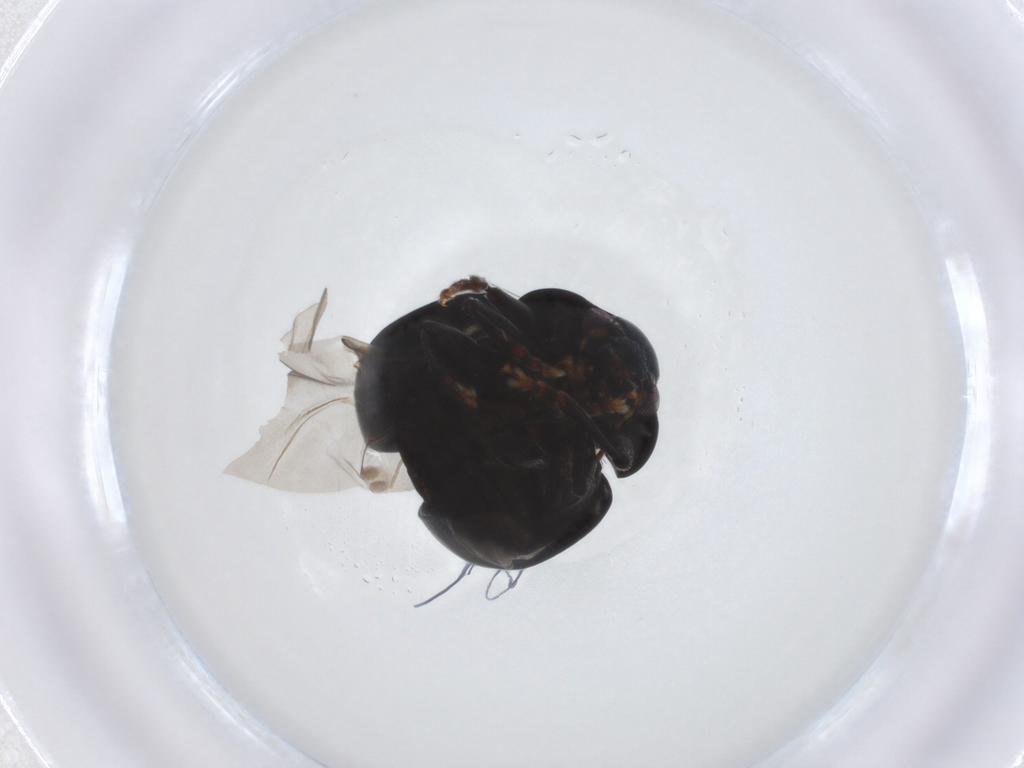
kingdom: Animalia
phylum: Arthropoda
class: Insecta
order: Coleoptera
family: Chrysomelidae
